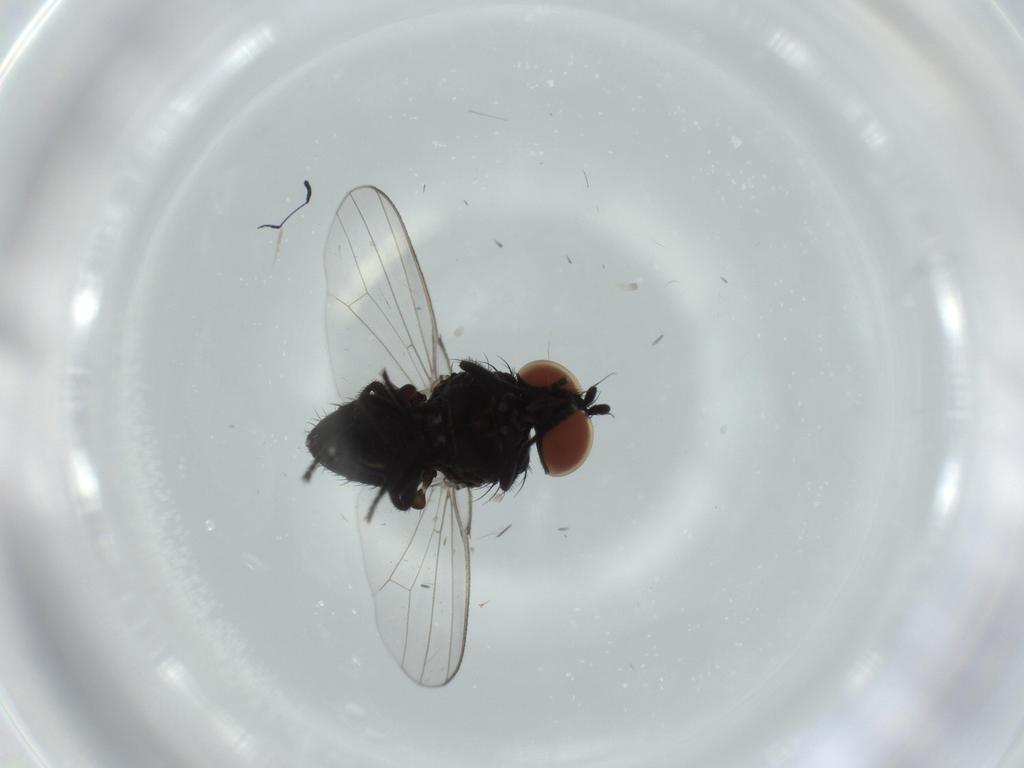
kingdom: Animalia
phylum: Arthropoda
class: Insecta
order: Diptera
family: Milichiidae
